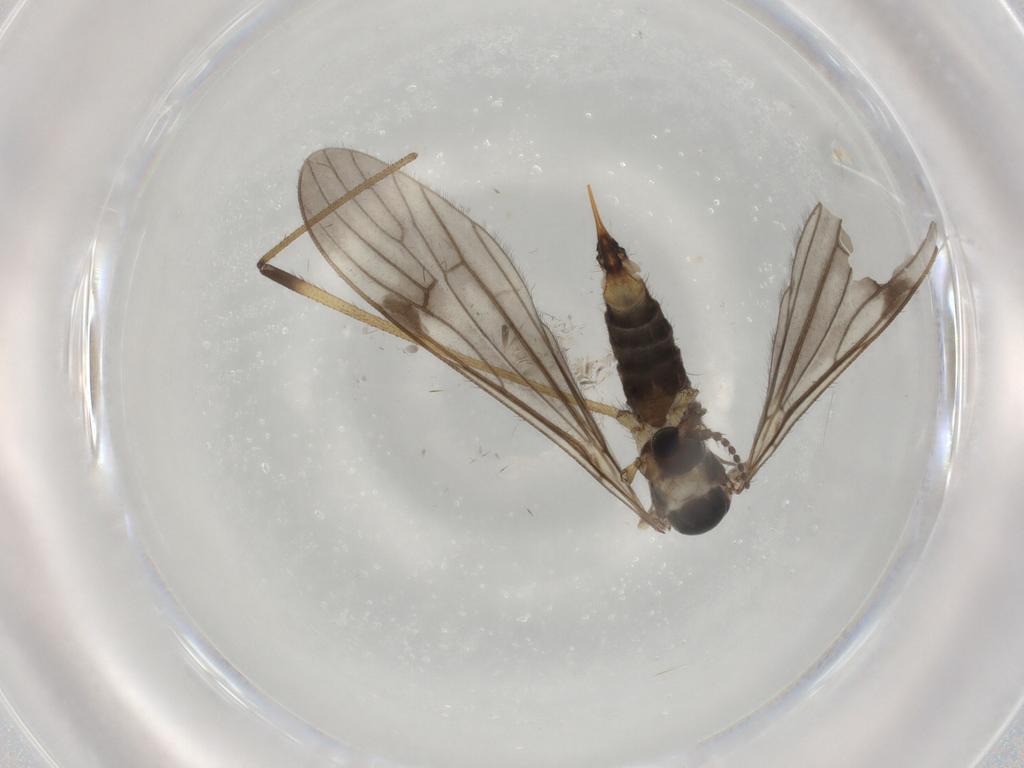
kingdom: Animalia
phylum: Arthropoda
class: Insecta
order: Diptera
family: Limoniidae
